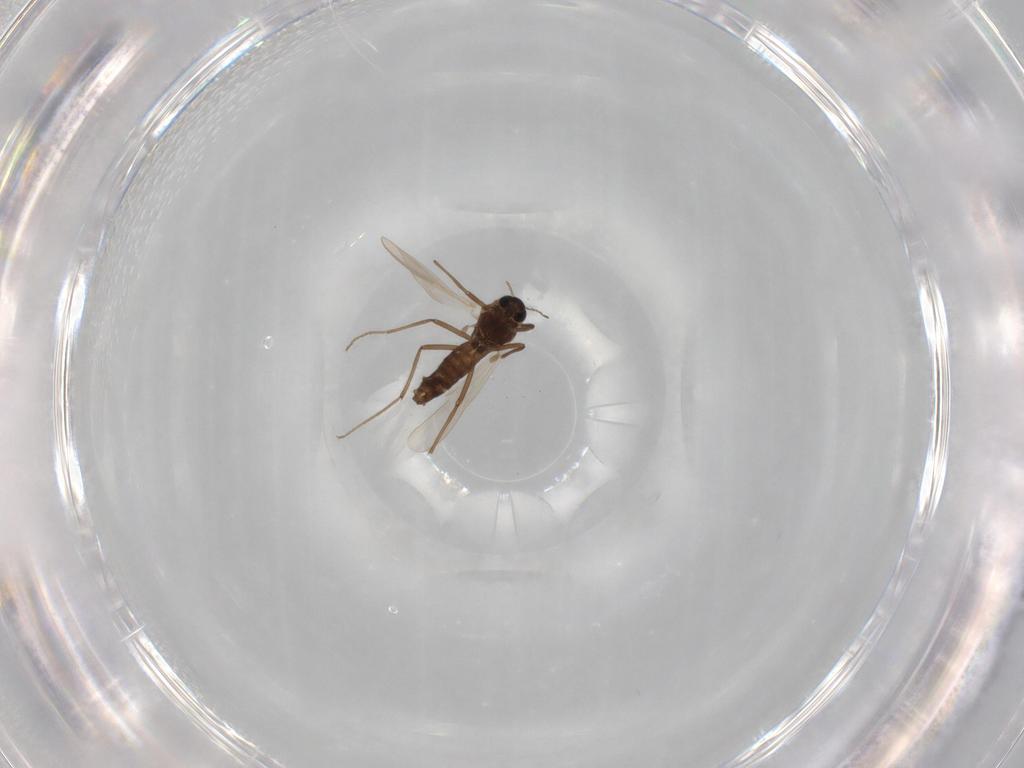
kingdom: Animalia
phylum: Arthropoda
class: Insecta
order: Diptera
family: Chironomidae
